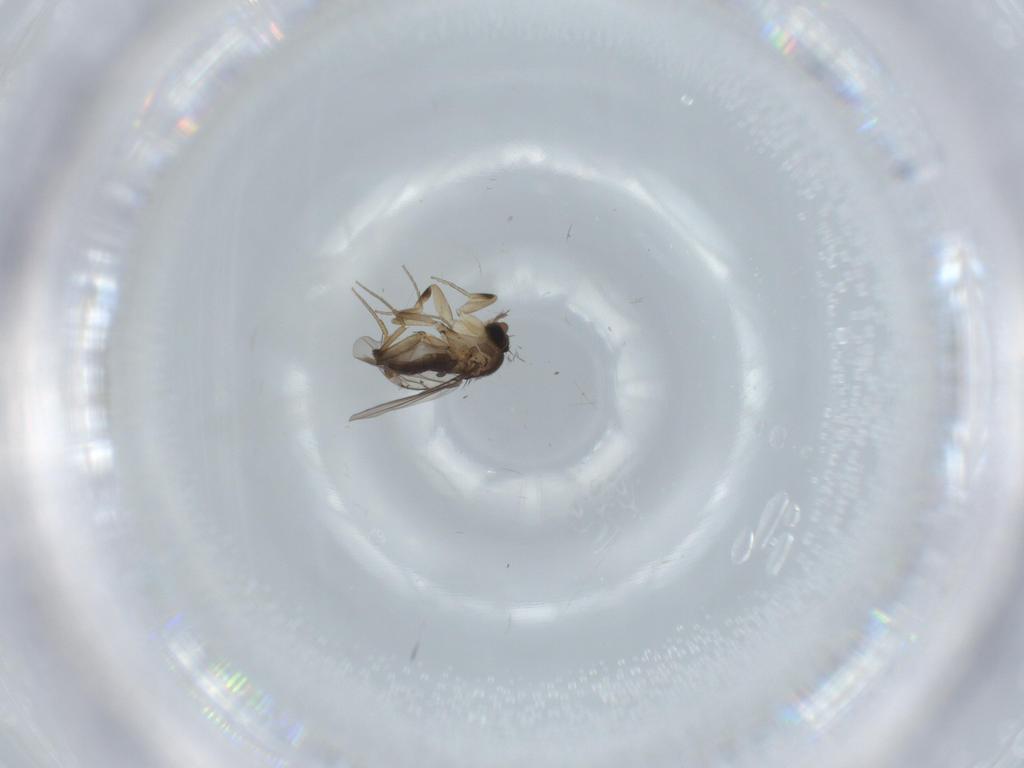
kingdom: Animalia
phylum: Arthropoda
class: Insecta
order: Diptera
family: Phoridae
